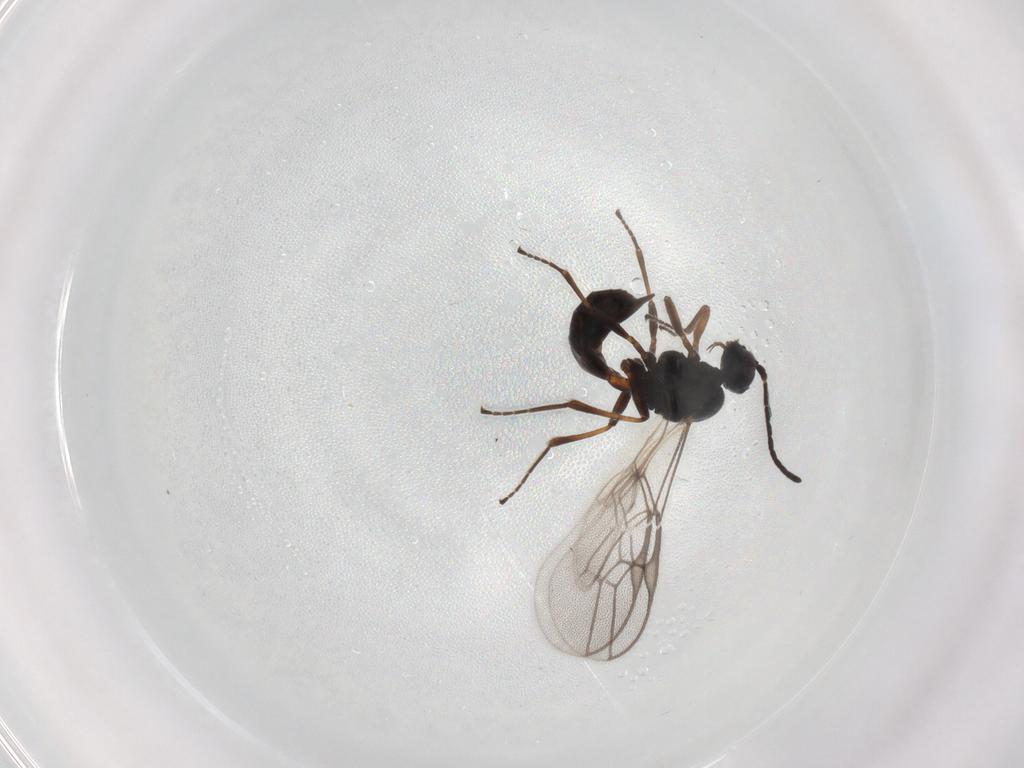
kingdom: Animalia
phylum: Arthropoda
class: Insecta
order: Hymenoptera
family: Braconidae
